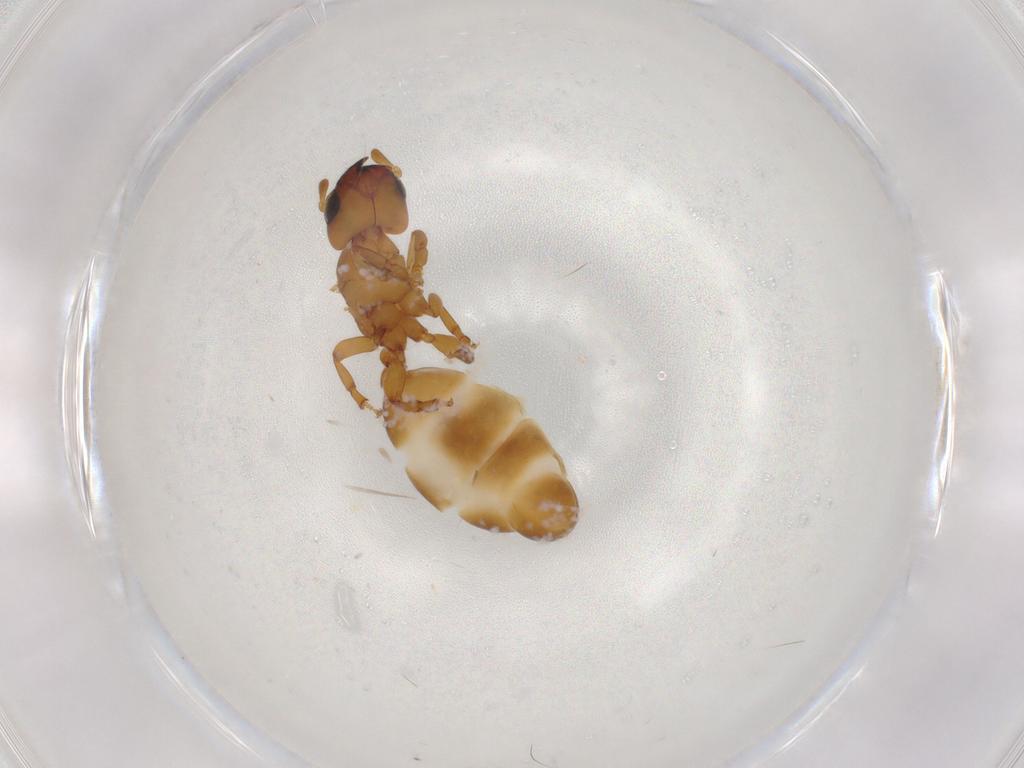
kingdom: Animalia
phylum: Arthropoda
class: Insecta
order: Hymenoptera
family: Formicidae
